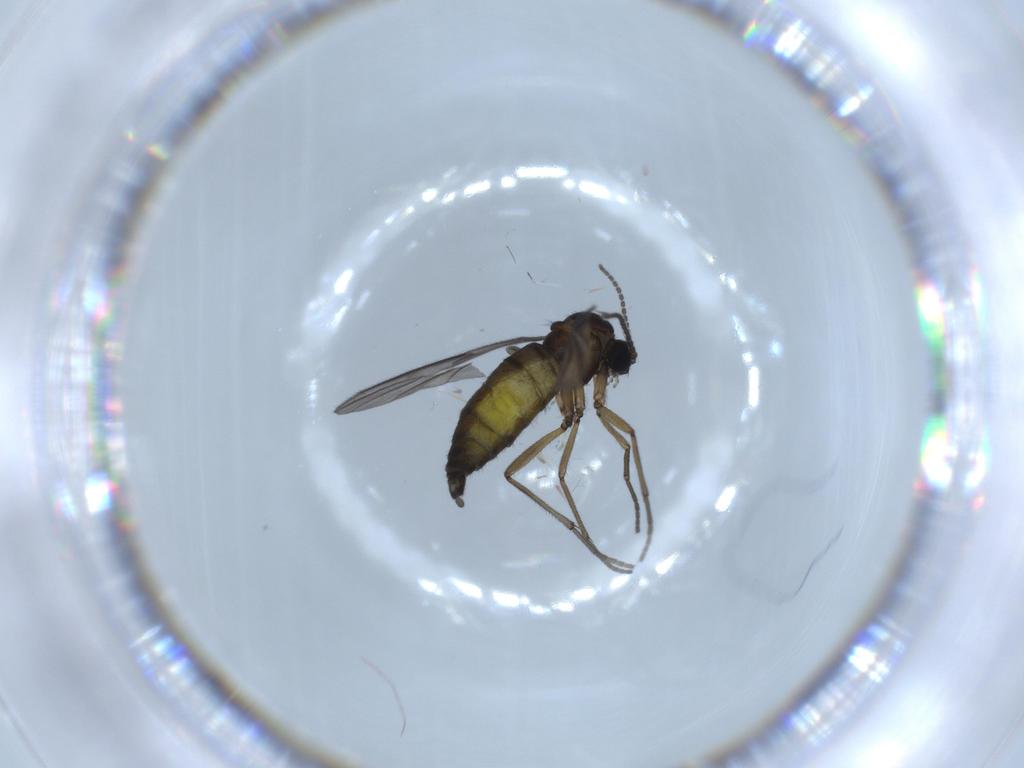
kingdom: Animalia
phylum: Arthropoda
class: Insecta
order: Diptera
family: Sciaridae
